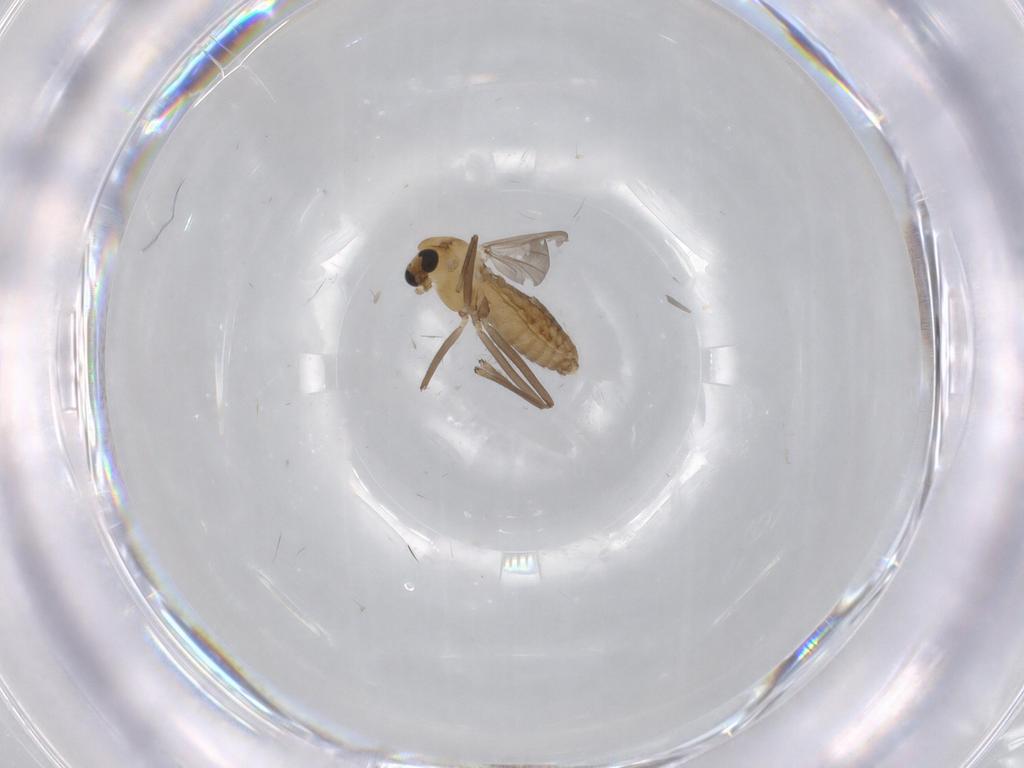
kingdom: Animalia
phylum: Arthropoda
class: Insecta
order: Diptera
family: Chironomidae
